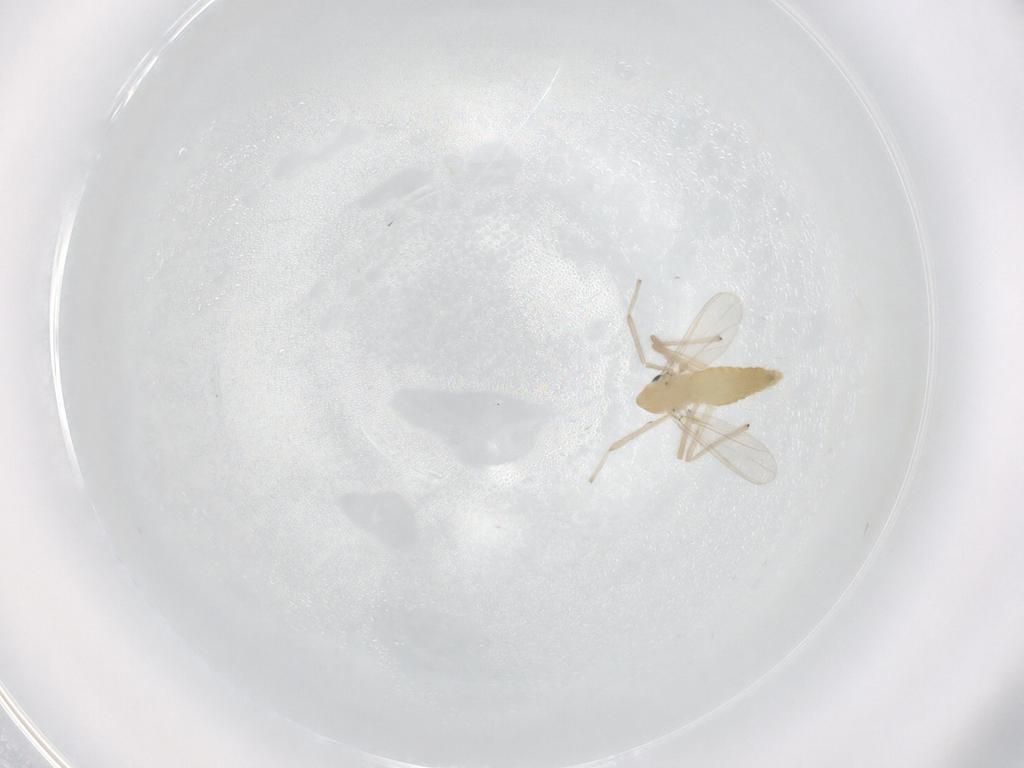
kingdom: Animalia
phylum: Arthropoda
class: Insecta
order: Diptera
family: Chironomidae
